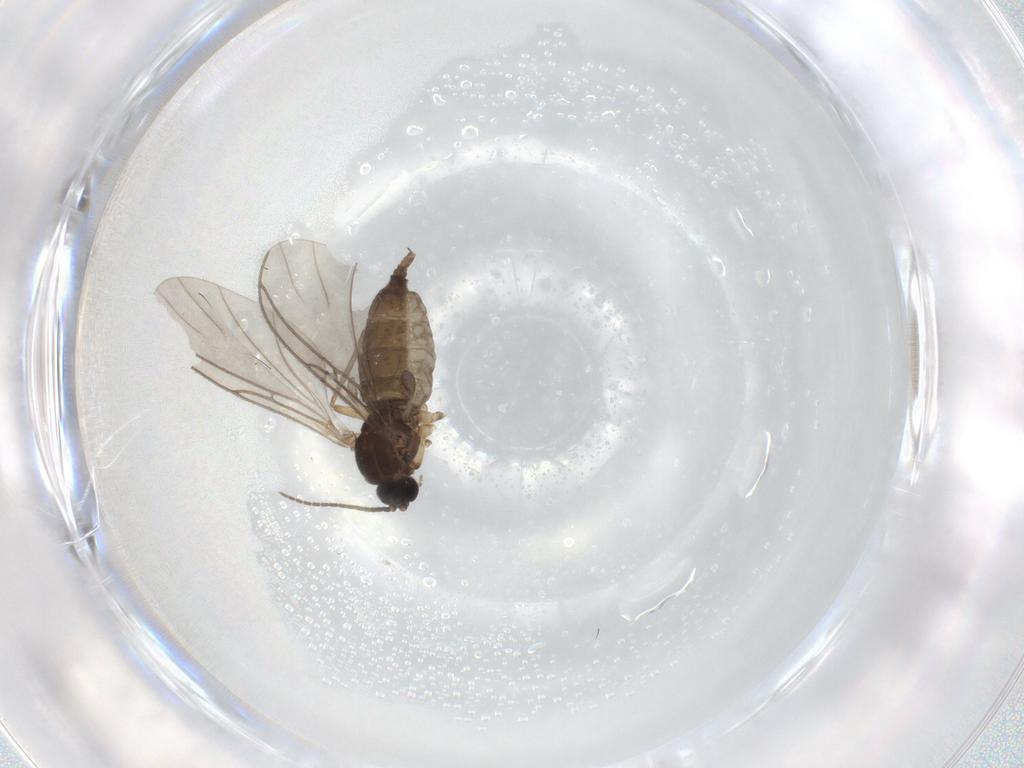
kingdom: Animalia
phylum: Arthropoda
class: Insecta
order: Diptera
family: Sciaridae
